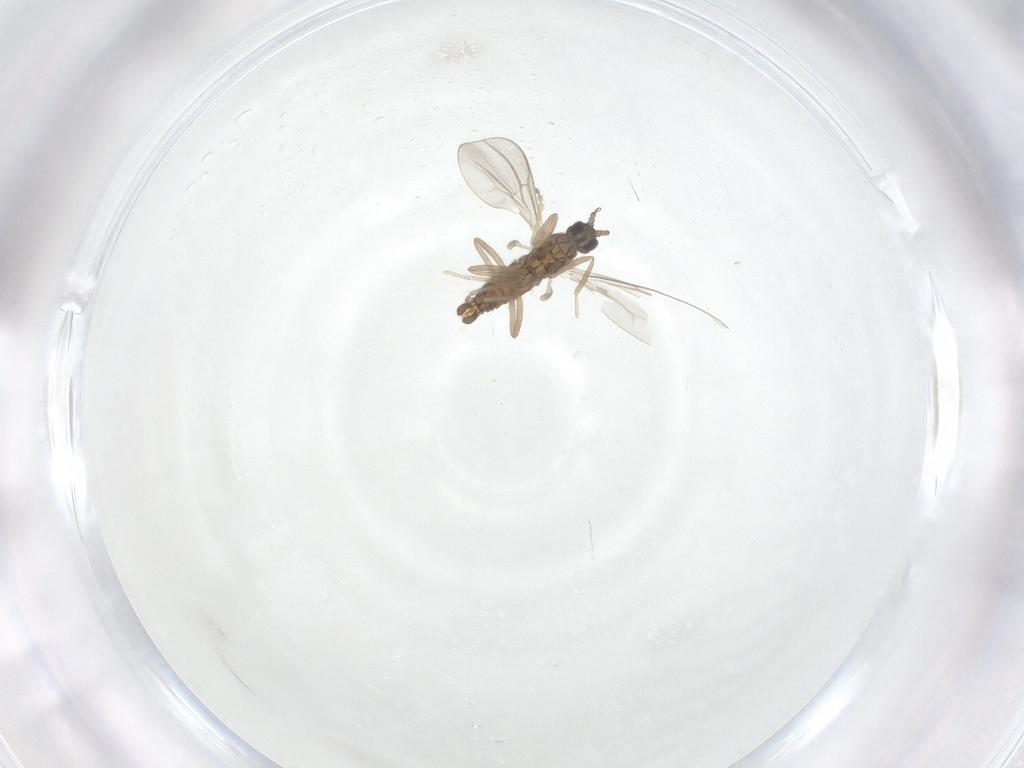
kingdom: Animalia
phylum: Arthropoda
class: Insecta
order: Diptera
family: Cecidomyiidae
